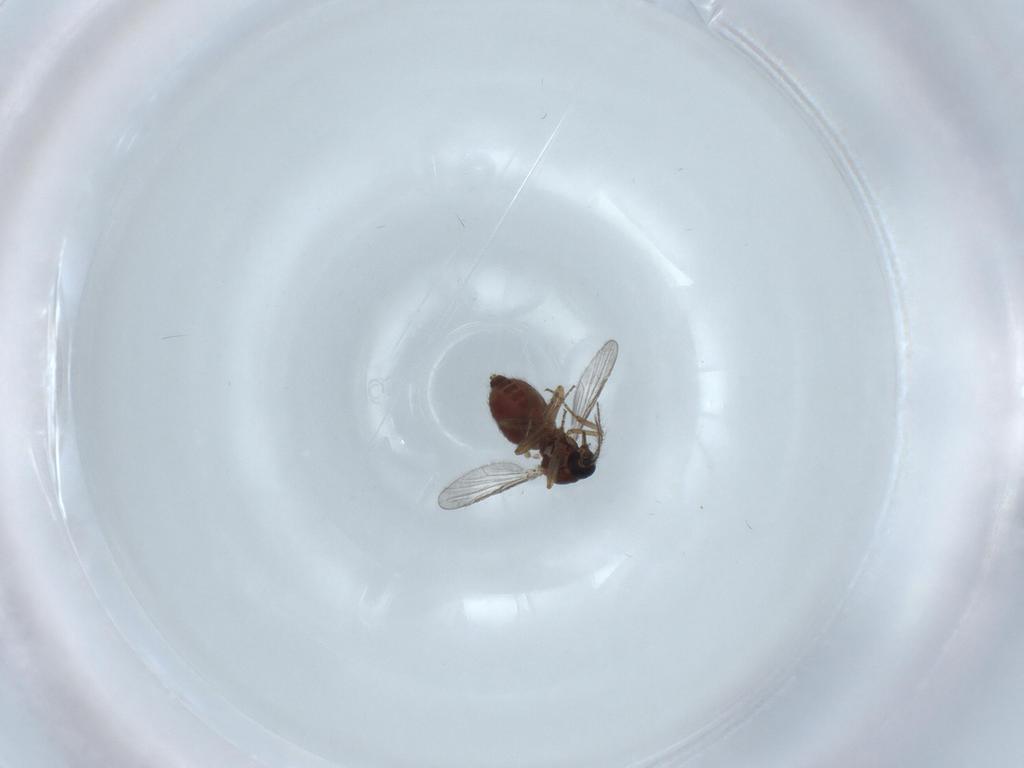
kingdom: Animalia
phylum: Arthropoda
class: Insecta
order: Diptera
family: Ceratopogonidae
